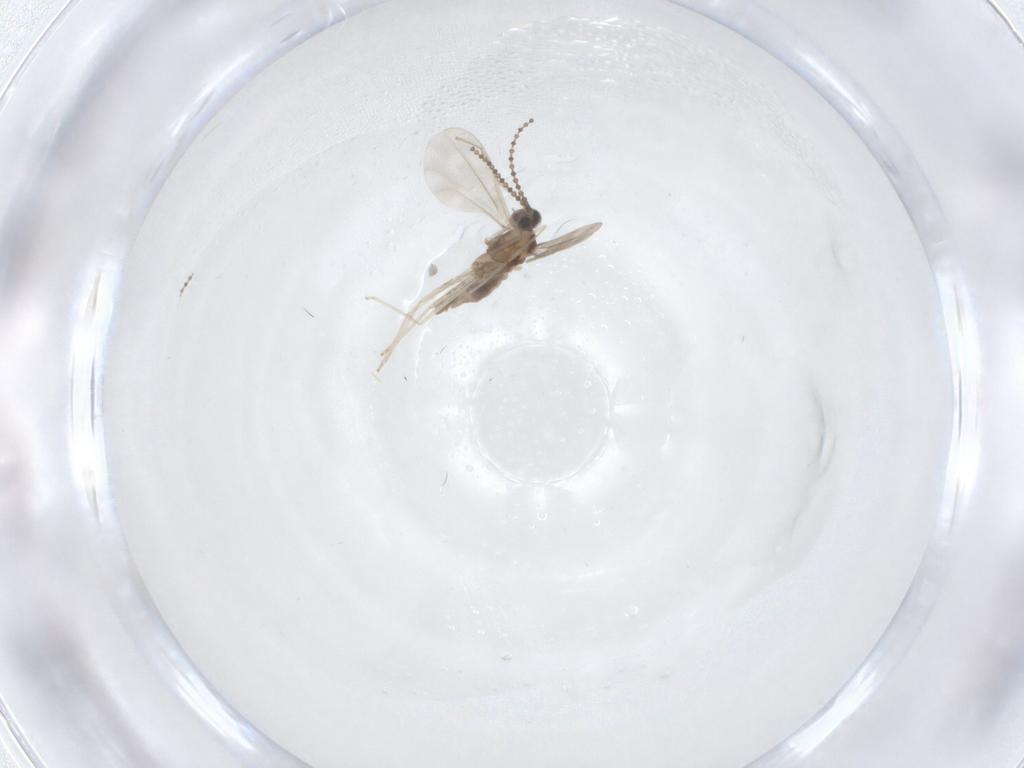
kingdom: Animalia
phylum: Arthropoda
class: Insecta
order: Diptera
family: Cecidomyiidae
